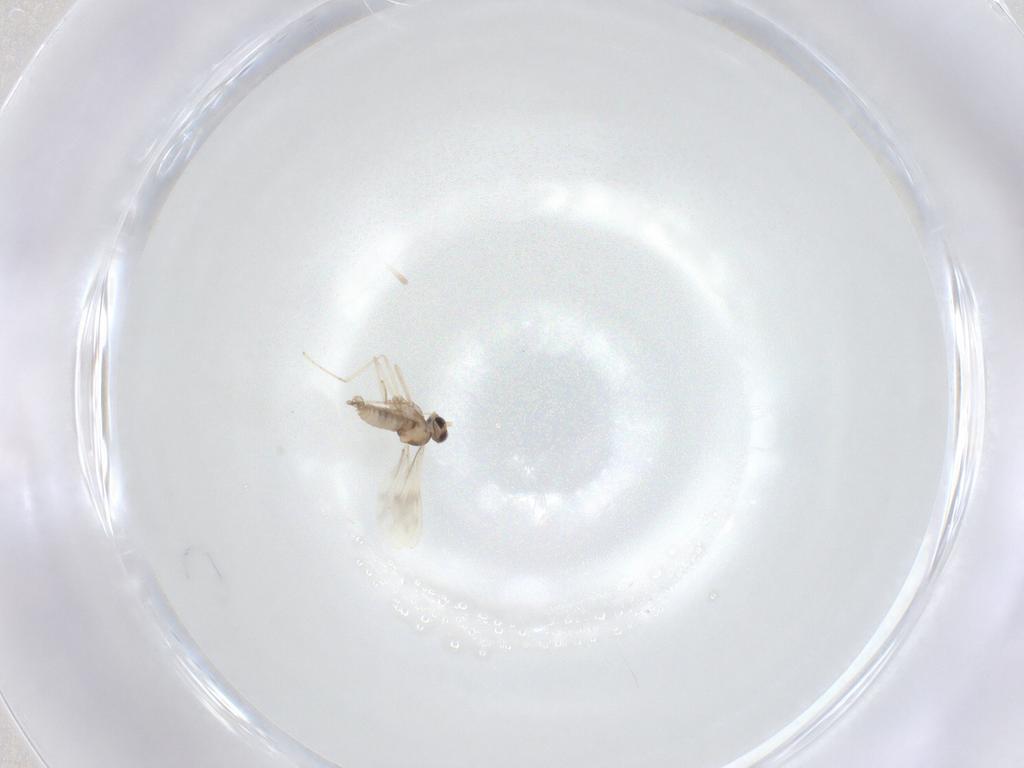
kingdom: Animalia
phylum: Arthropoda
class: Insecta
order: Diptera
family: Cecidomyiidae
